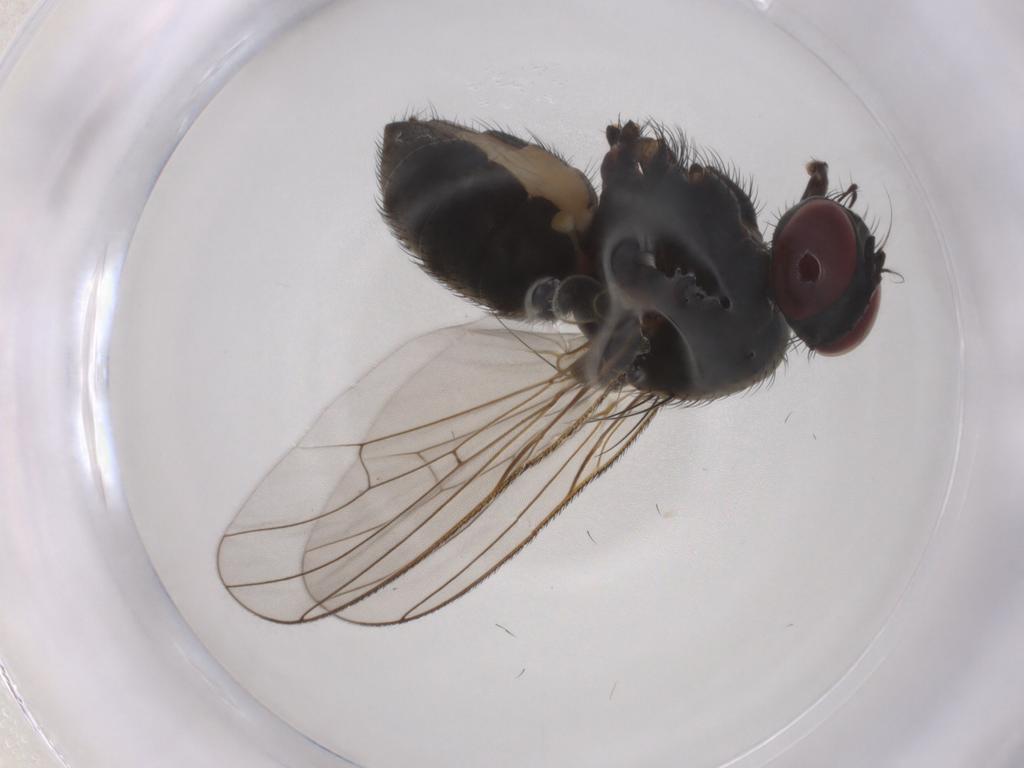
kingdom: Animalia
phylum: Arthropoda
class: Insecta
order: Diptera
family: Muscidae
